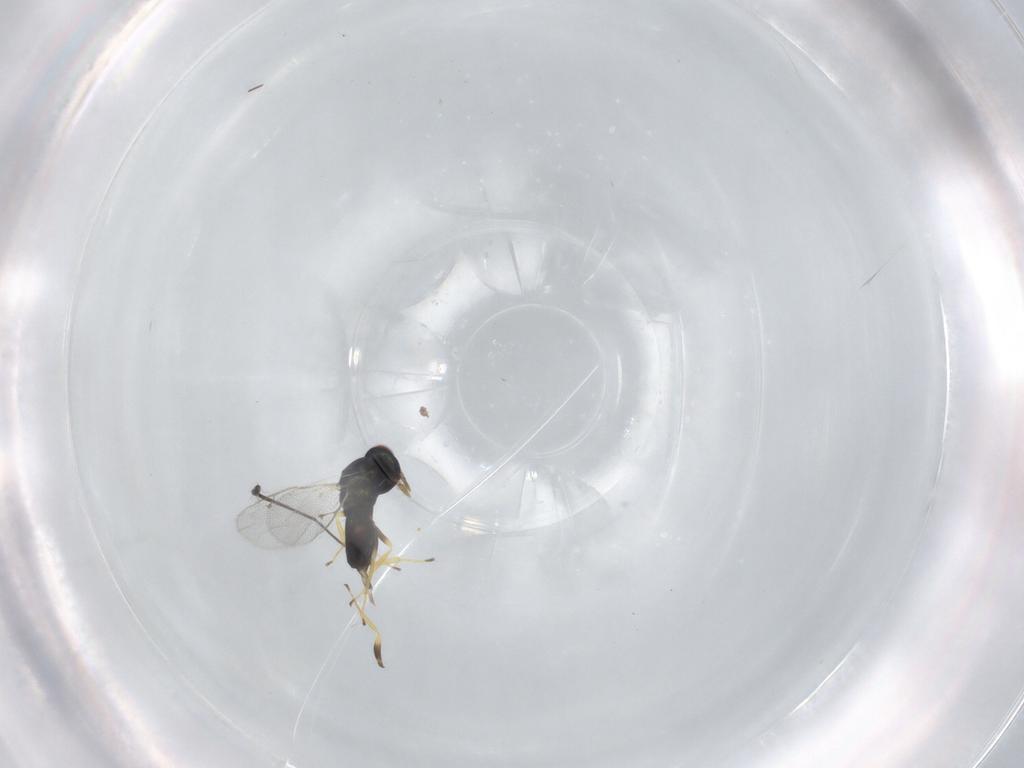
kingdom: Animalia
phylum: Arthropoda
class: Insecta
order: Hymenoptera
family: Pteromalidae
